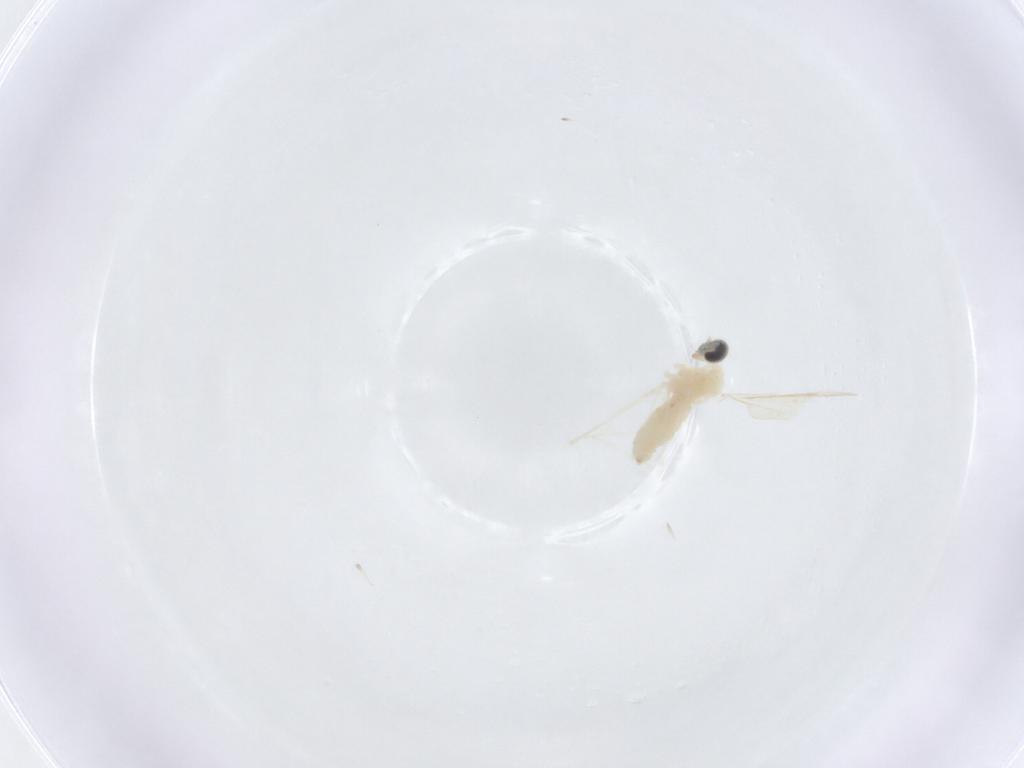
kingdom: Animalia
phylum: Arthropoda
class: Insecta
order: Diptera
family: Cecidomyiidae
